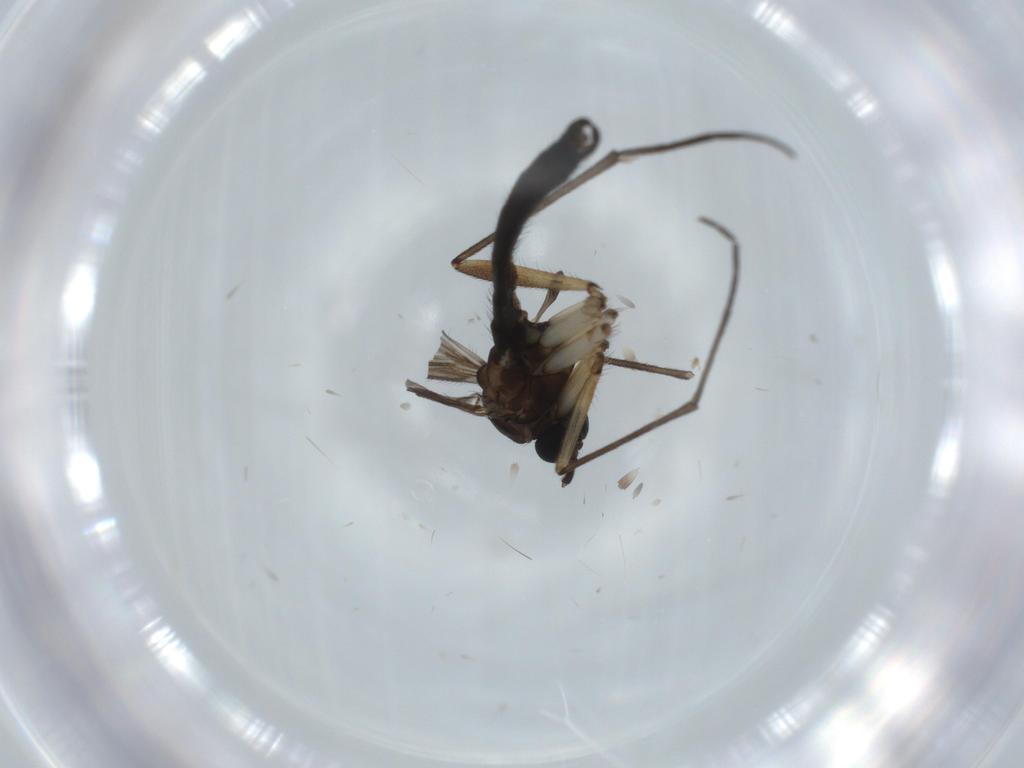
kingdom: Animalia
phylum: Arthropoda
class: Insecta
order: Diptera
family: Sciaridae
